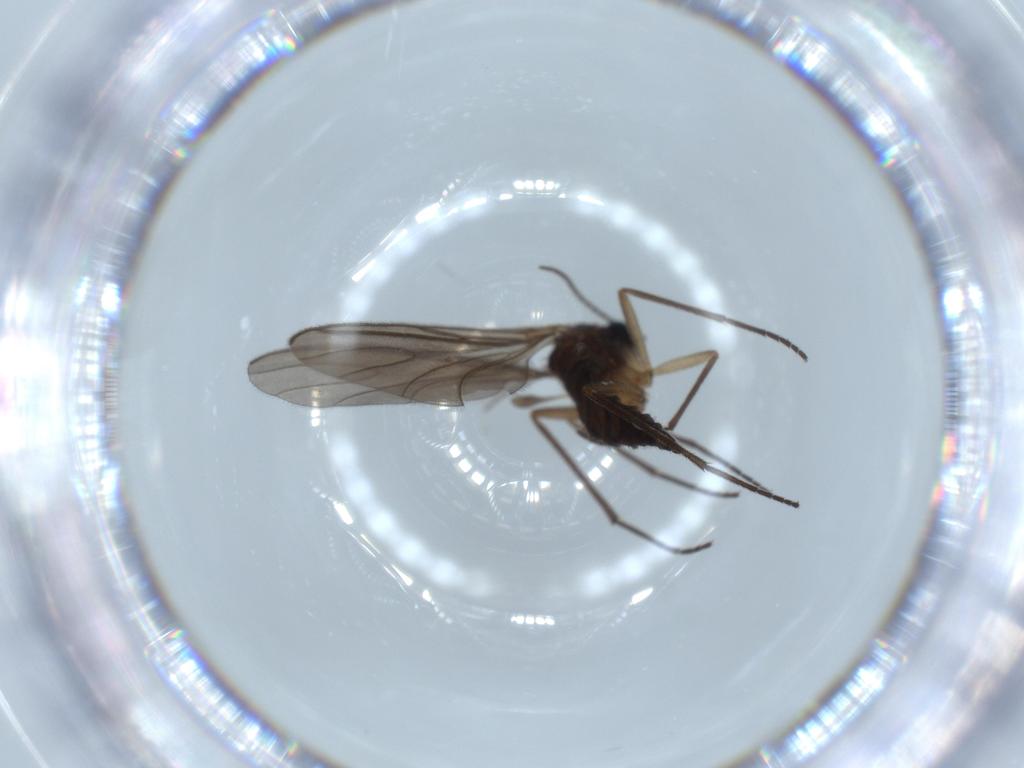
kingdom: Animalia
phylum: Arthropoda
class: Insecta
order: Diptera
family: Sciaridae
